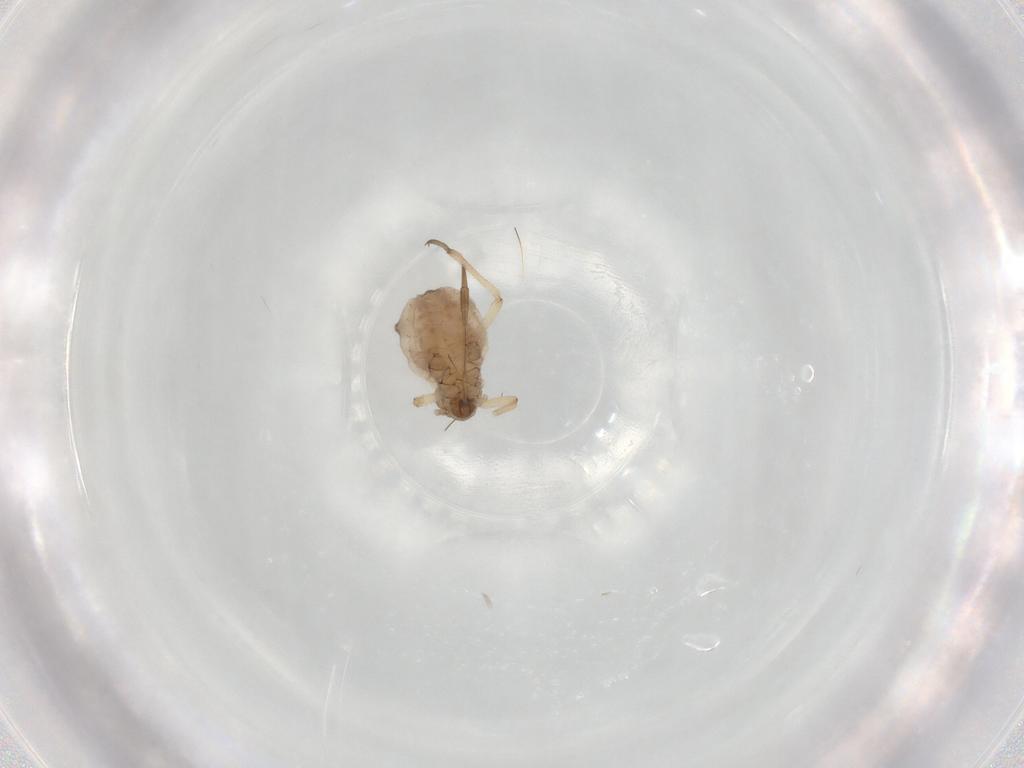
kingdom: Animalia
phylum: Arthropoda
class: Insecta
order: Hemiptera
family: Aphididae
